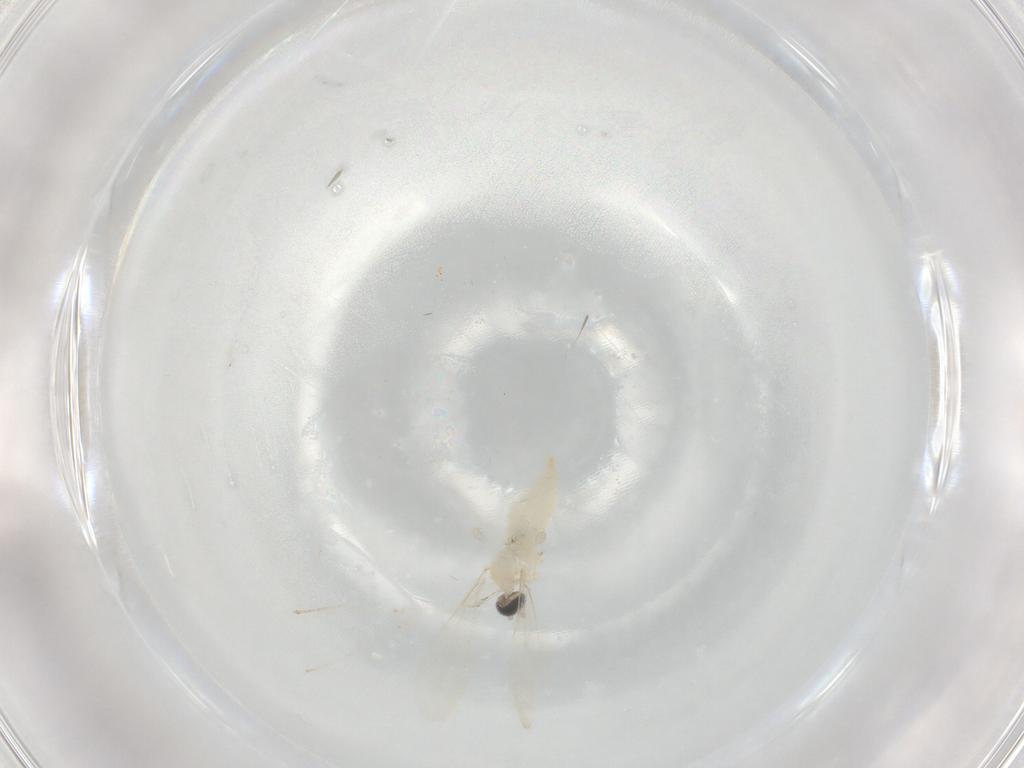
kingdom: Animalia
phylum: Arthropoda
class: Insecta
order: Diptera
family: Cecidomyiidae
